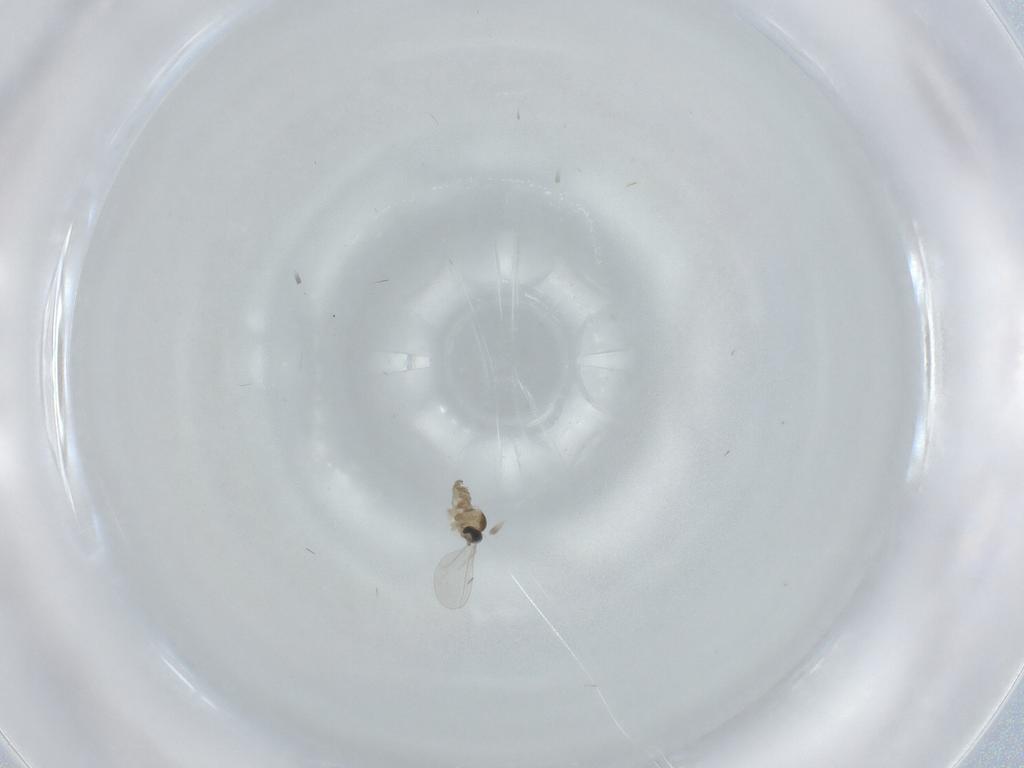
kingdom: Animalia
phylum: Arthropoda
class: Insecta
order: Diptera
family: Cecidomyiidae
